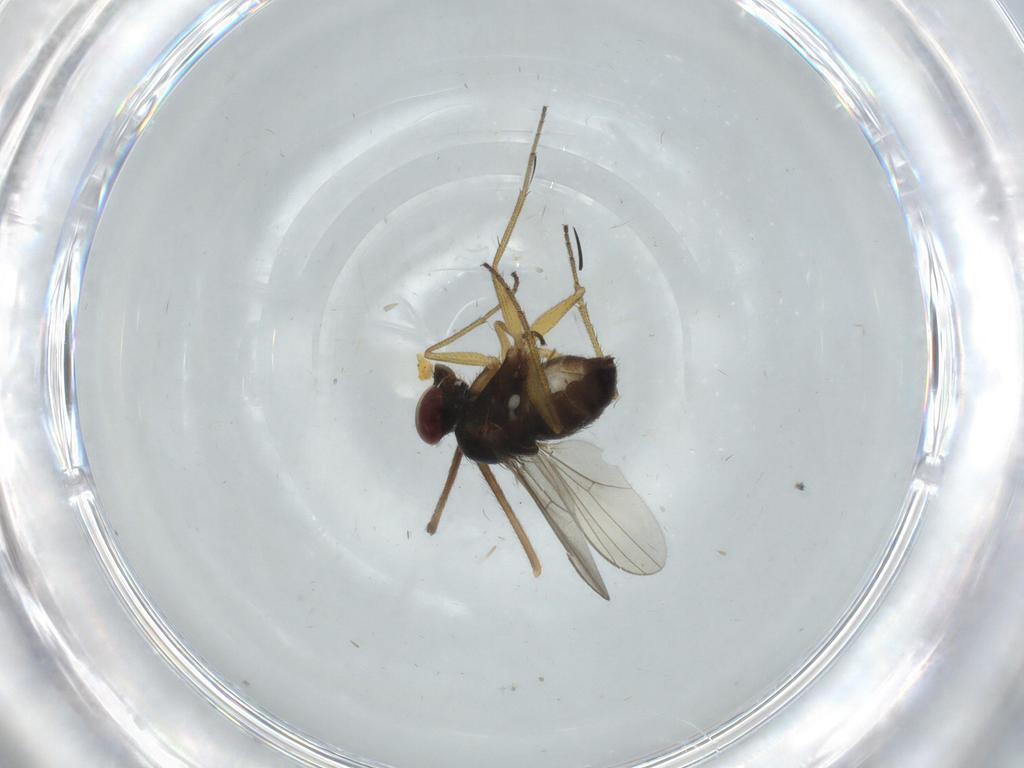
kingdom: Animalia
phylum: Arthropoda
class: Insecta
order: Diptera
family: Dolichopodidae
